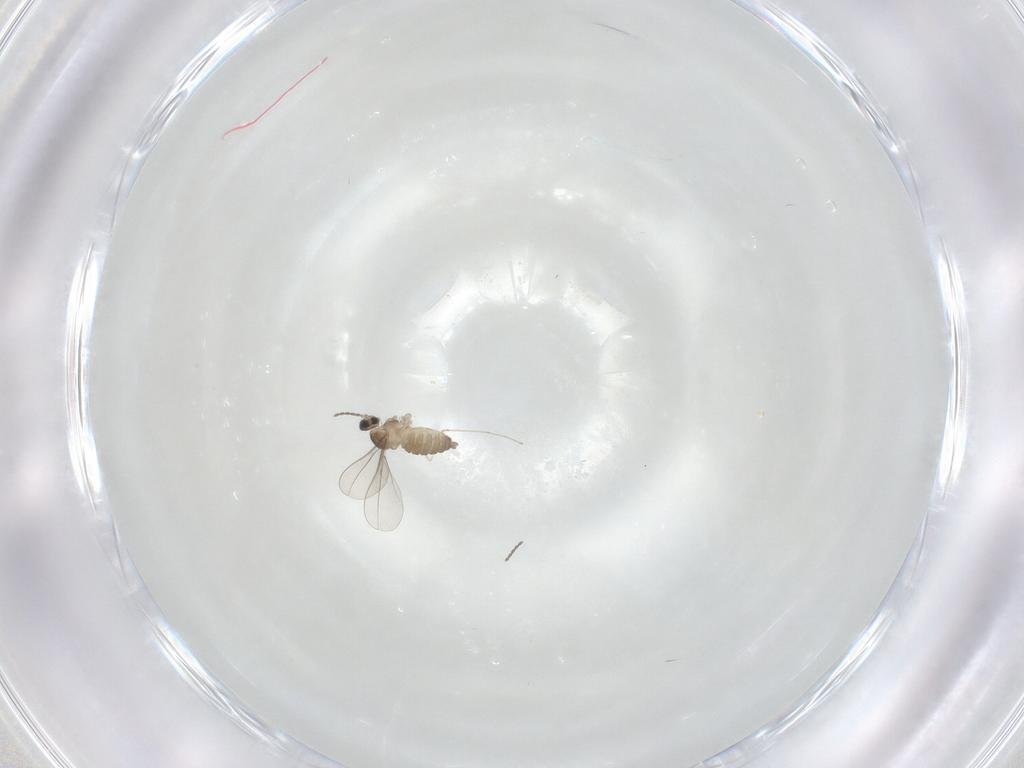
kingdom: Animalia
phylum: Arthropoda
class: Insecta
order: Diptera
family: Cecidomyiidae
